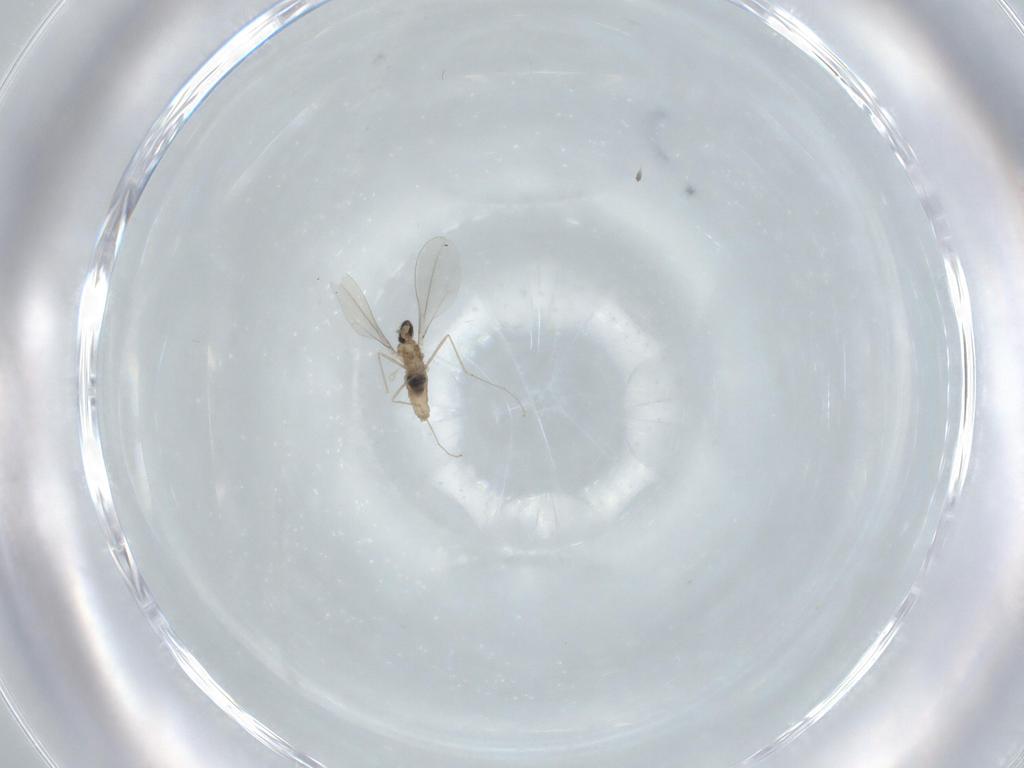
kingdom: Animalia
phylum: Arthropoda
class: Insecta
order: Diptera
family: Cecidomyiidae
